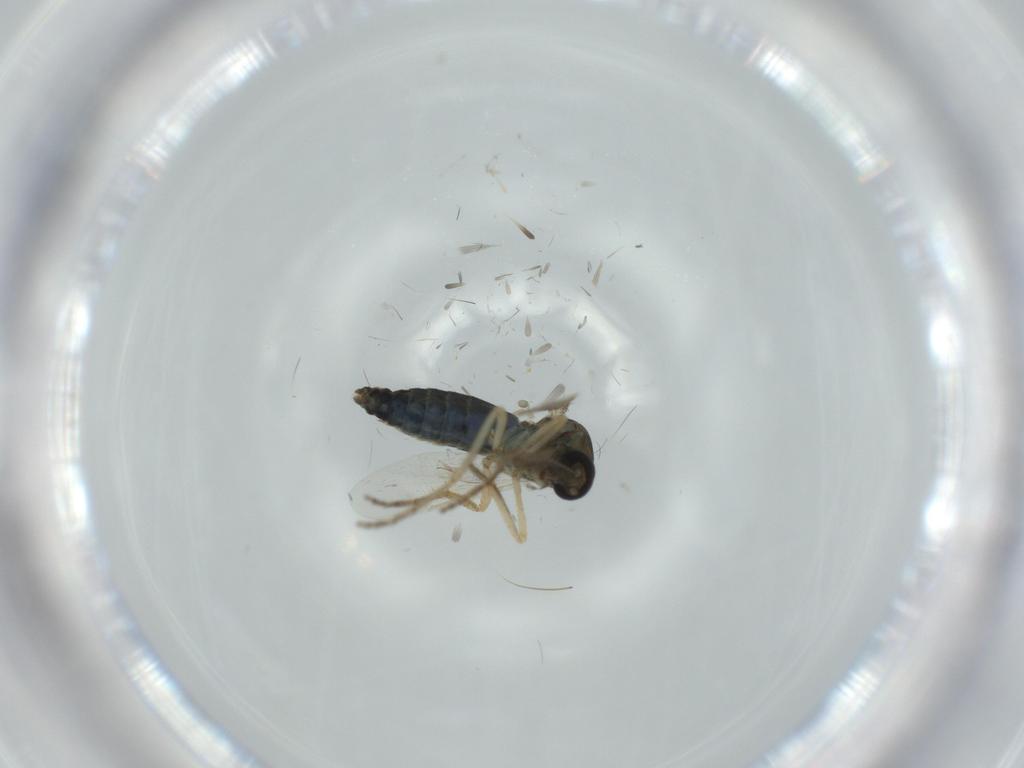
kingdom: Animalia
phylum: Arthropoda
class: Insecta
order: Diptera
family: Ceratopogonidae
